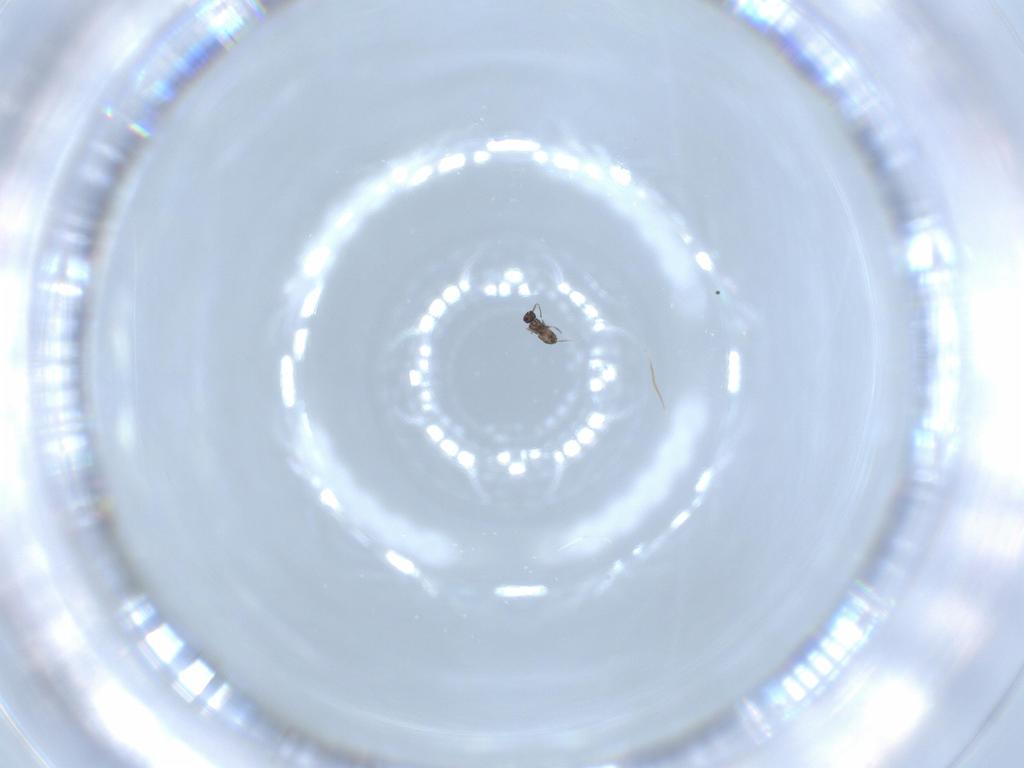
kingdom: Animalia
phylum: Arthropoda
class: Insecta
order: Hymenoptera
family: Mymaridae
